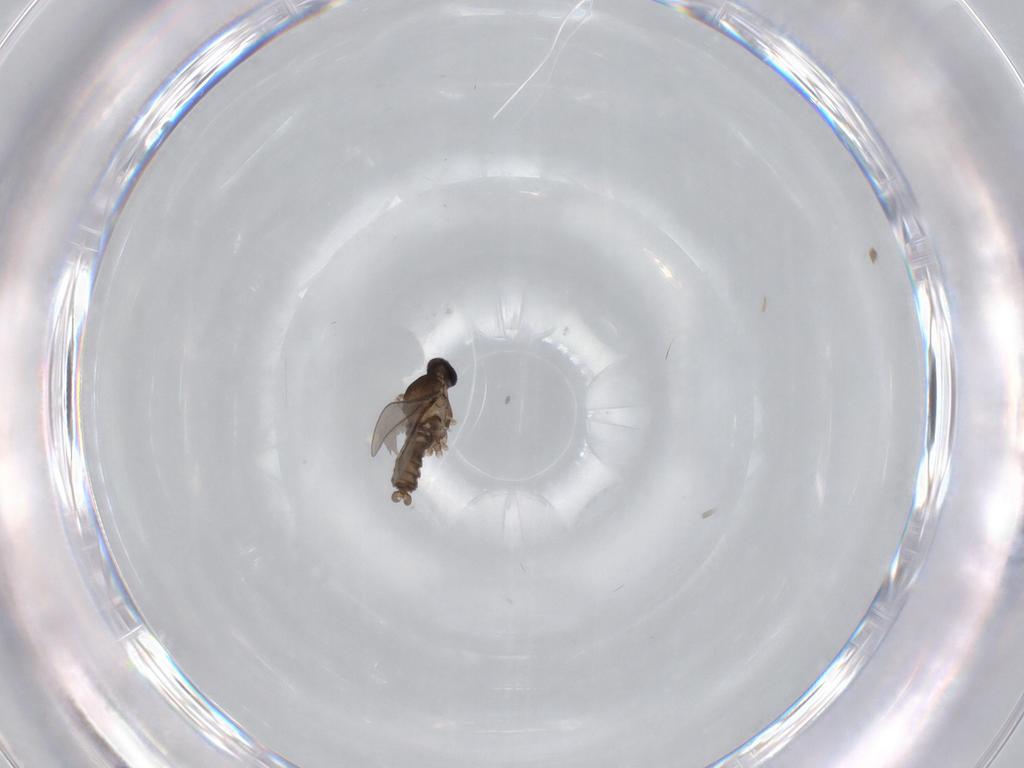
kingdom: Animalia
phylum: Arthropoda
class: Insecta
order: Diptera
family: Cecidomyiidae
